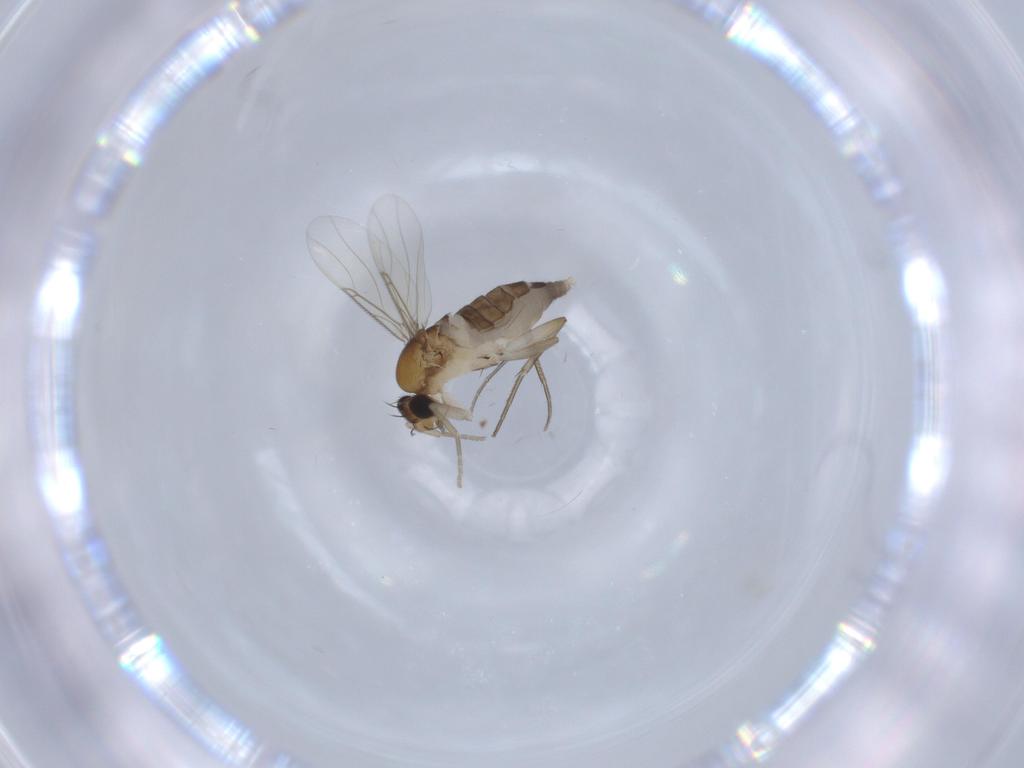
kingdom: Animalia
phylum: Arthropoda
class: Insecta
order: Diptera
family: Phoridae
